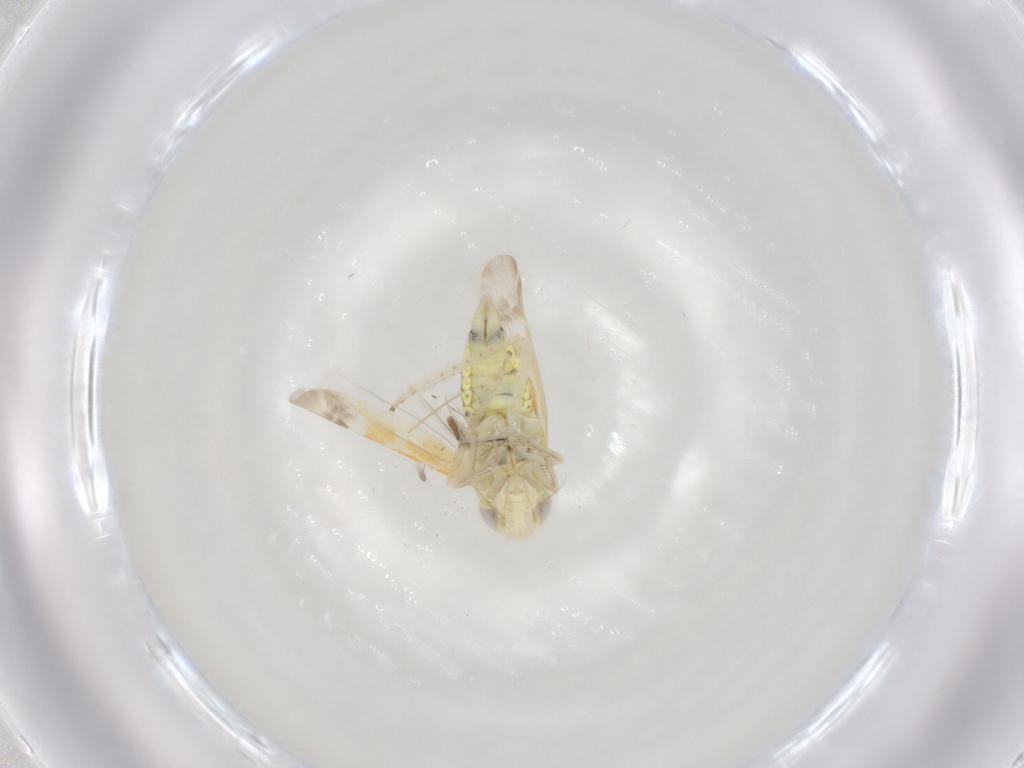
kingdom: Animalia
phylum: Arthropoda
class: Insecta
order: Hemiptera
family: Cicadellidae
